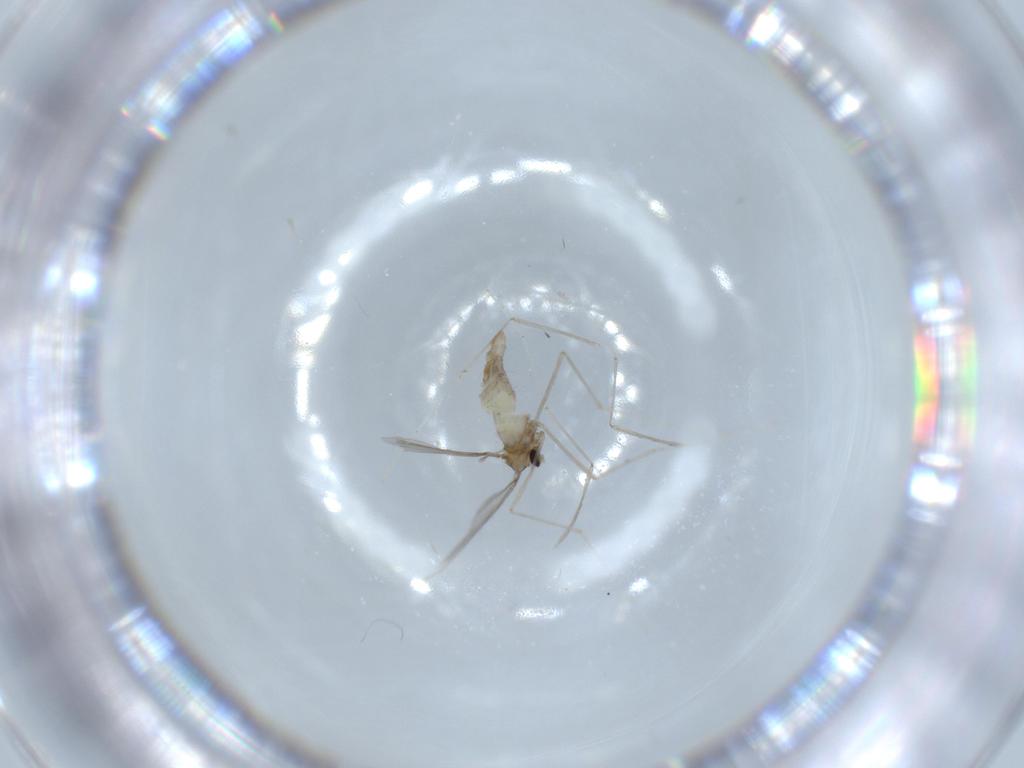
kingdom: Animalia
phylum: Arthropoda
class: Insecta
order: Diptera
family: Cecidomyiidae
